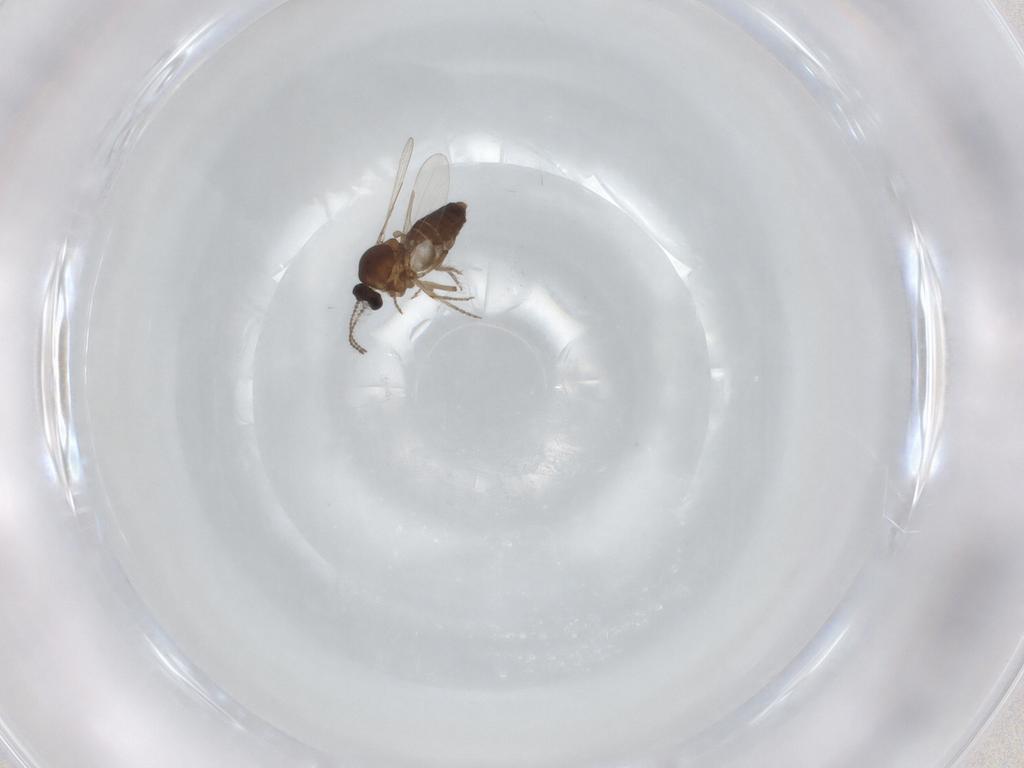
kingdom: Animalia
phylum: Arthropoda
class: Insecta
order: Diptera
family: Ceratopogonidae
